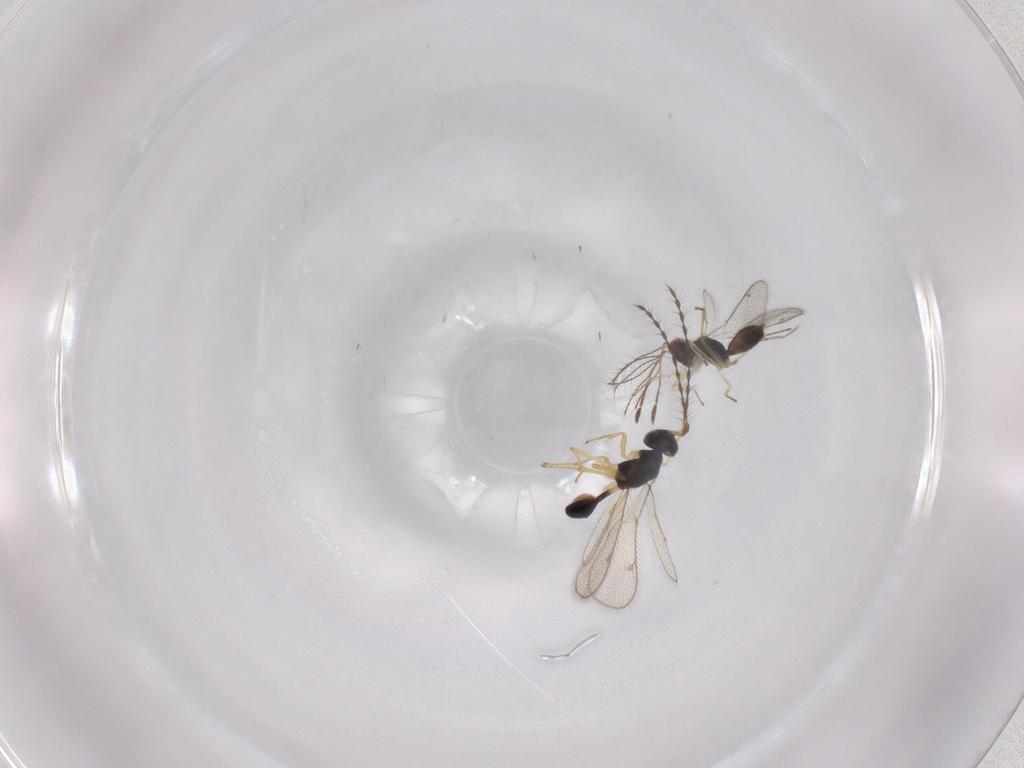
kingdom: Animalia
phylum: Arthropoda
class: Insecta
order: Hymenoptera
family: Diparidae
